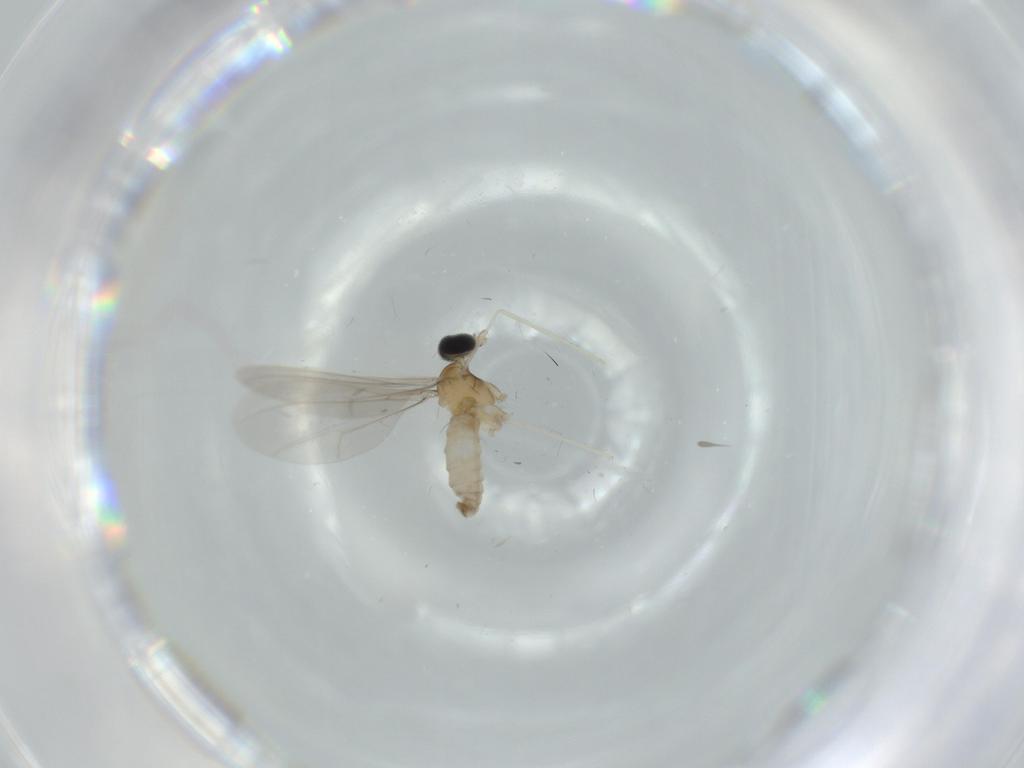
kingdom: Animalia
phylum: Arthropoda
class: Insecta
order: Diptera
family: Cecidomyiidae
